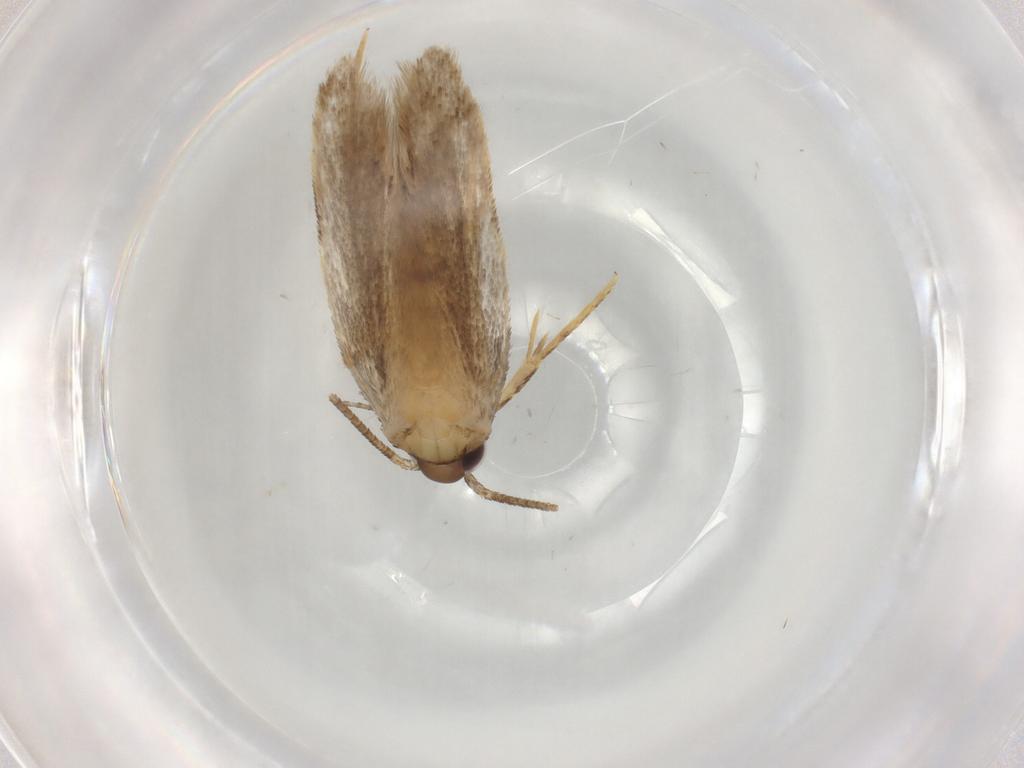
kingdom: Animalia
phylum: Arthropoda
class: Insecta
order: Lepidoptera
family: Autostichidae
